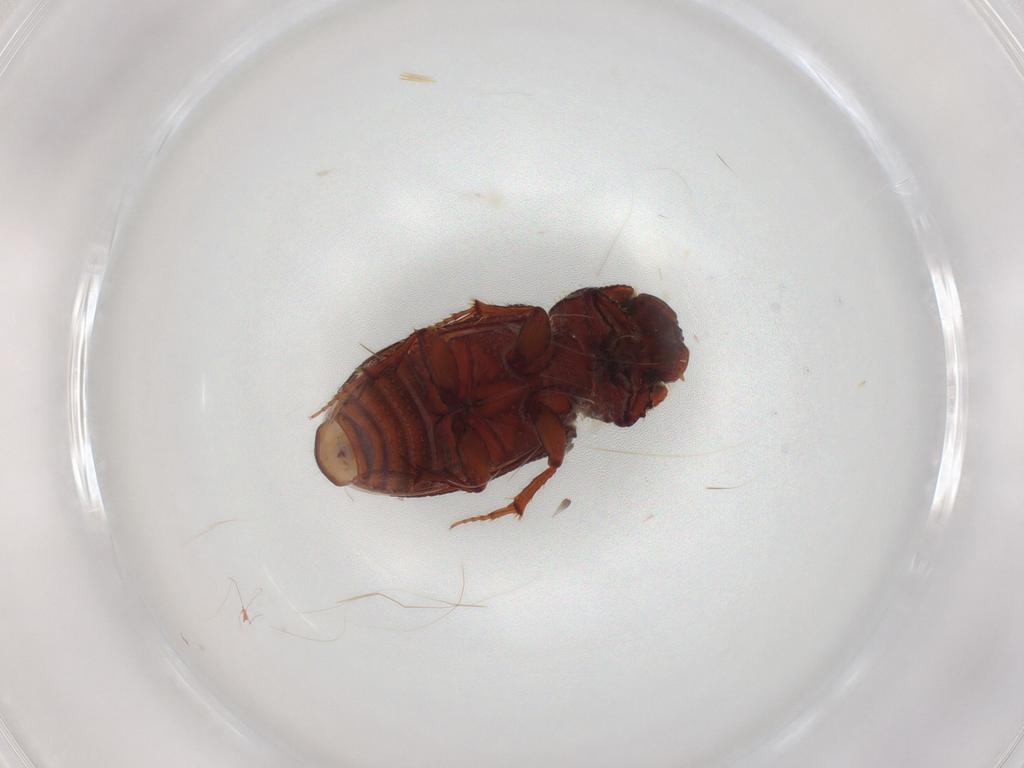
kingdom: Animalia
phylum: Arthropoda
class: Insecta
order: Coleoptera
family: Scarabaeidae
